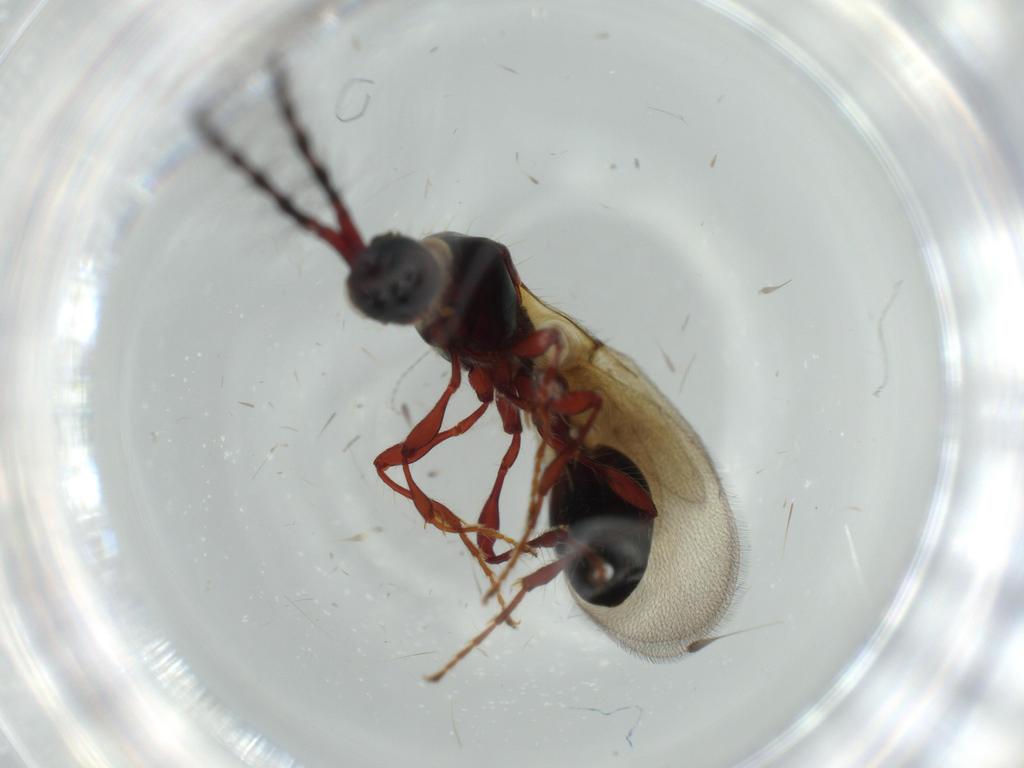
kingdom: Animalia
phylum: Arthropoda
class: Insecta
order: Hymenoptera
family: Diapriidae
